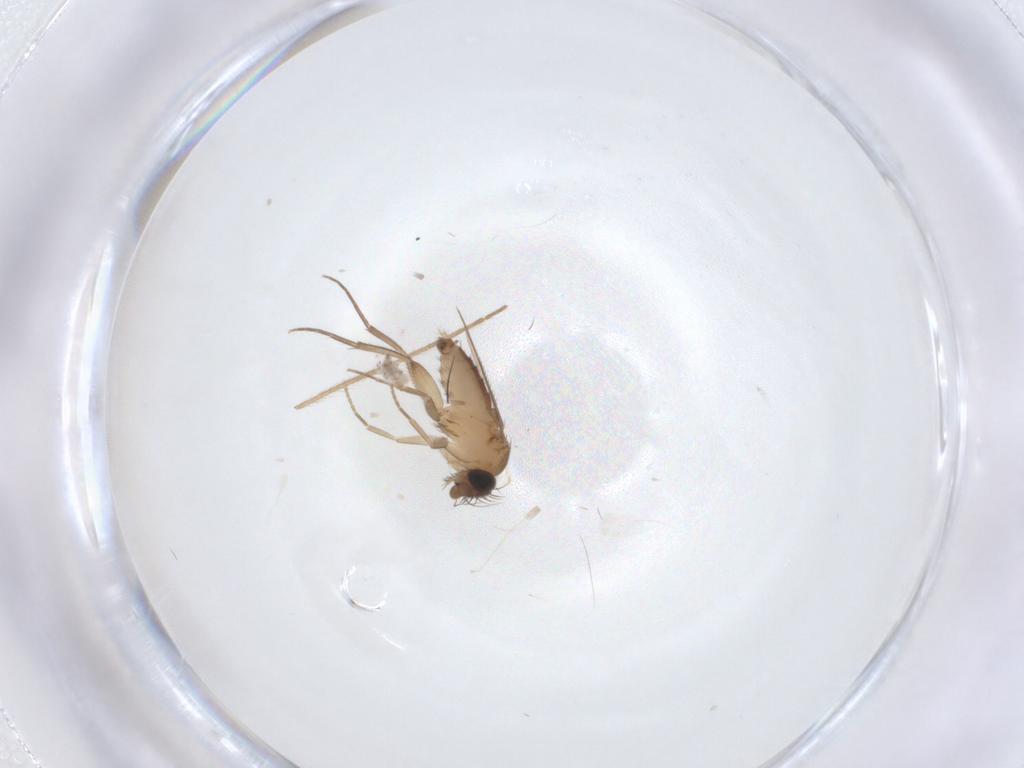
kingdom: Animalia
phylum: Arthropoda
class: Insecta
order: Diptera
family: Phoridae
